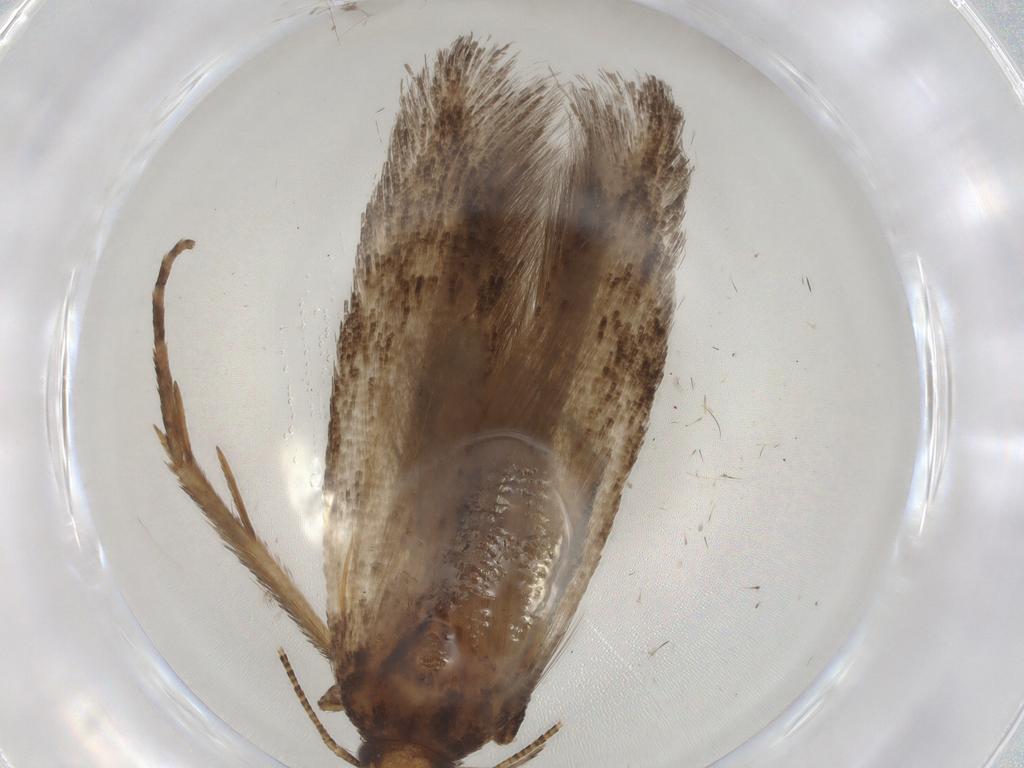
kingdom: Animalia
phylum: Arthropoda
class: Insecta
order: Lepidoptera
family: Gelechiidae
